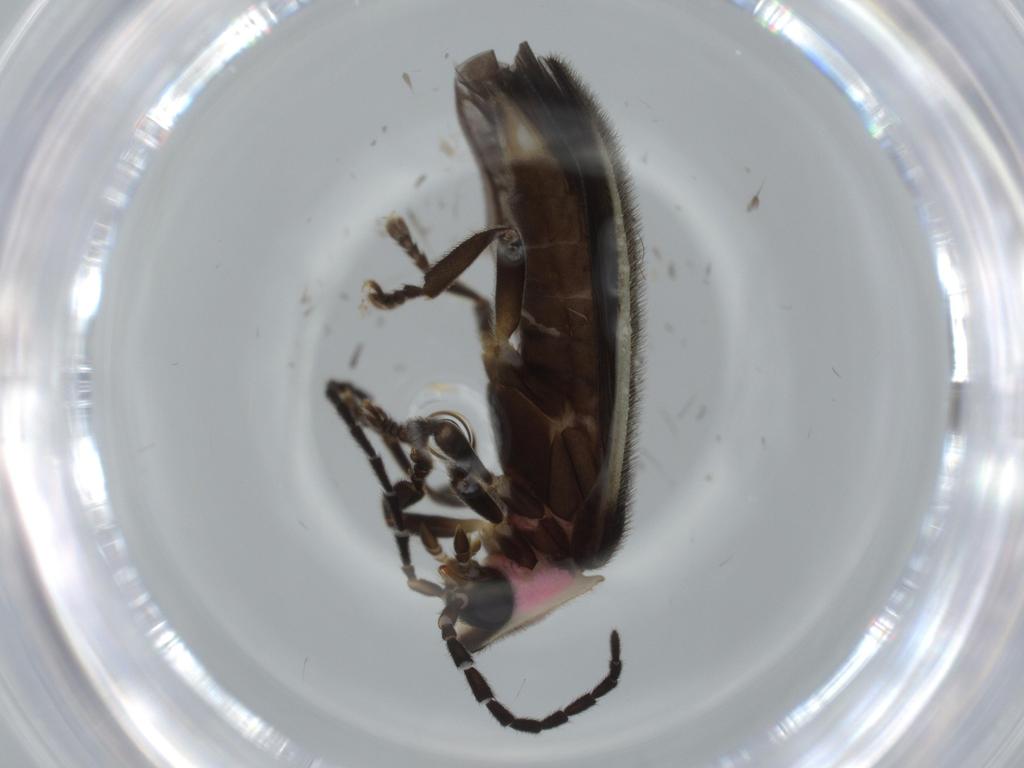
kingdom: Animalia
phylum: Arthropoda
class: Insecta
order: Coleoptera
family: Lampyridae
